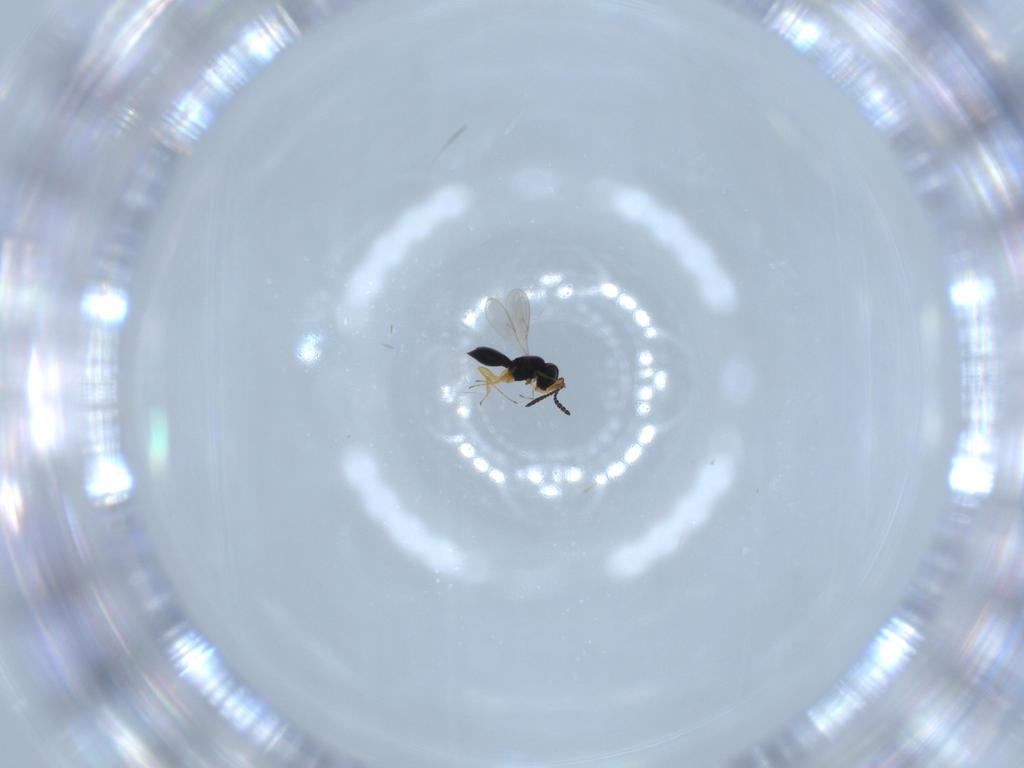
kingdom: Animalia
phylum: Arthropoda
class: Insecta
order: Hymenoptera
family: Scelionidae
